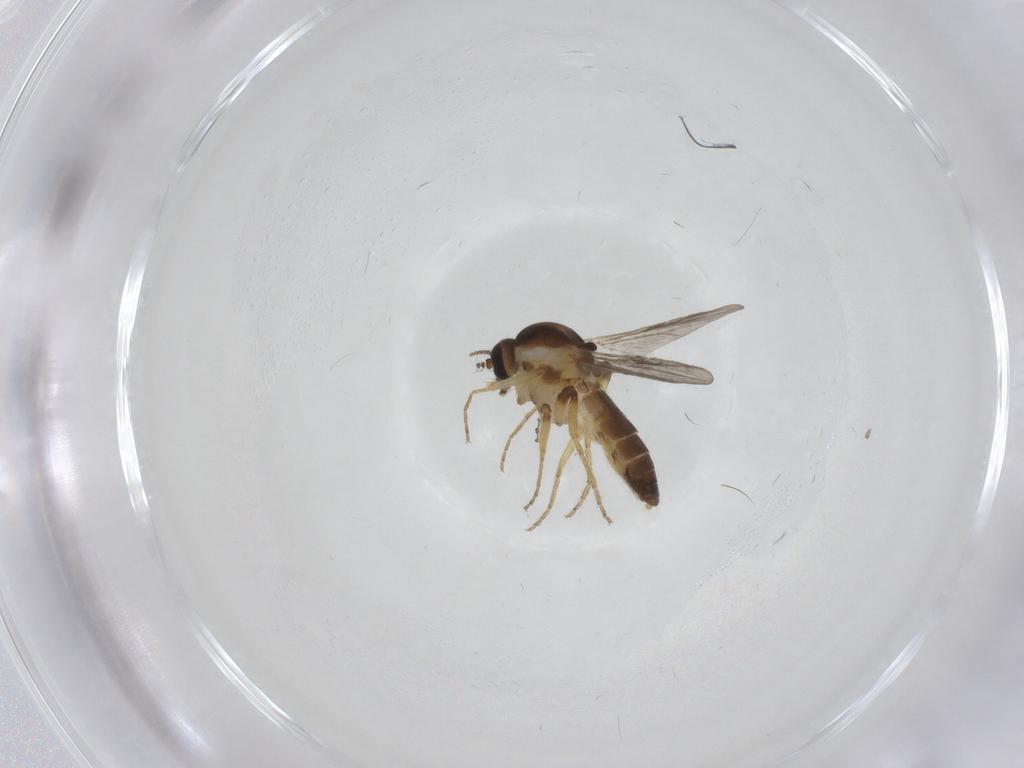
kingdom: Animalia
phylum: Arthropoda
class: Insecta
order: Diptera
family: Ceratopogonidae
